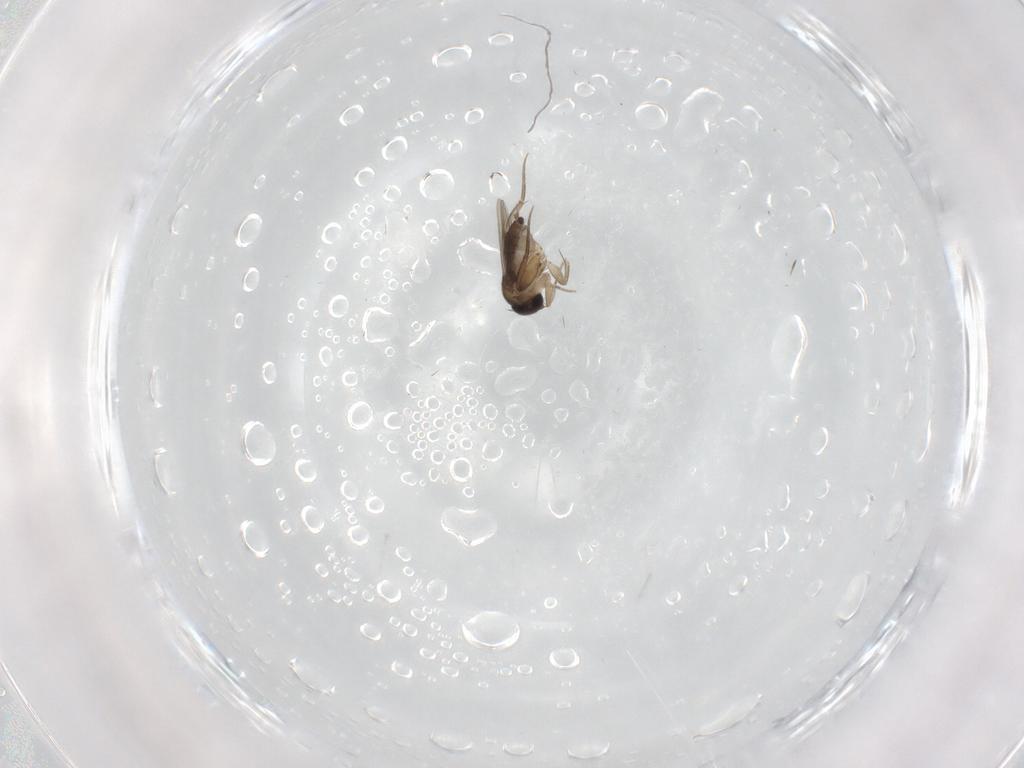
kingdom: Animalia
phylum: Arthropoda
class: Insecta
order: Diptera
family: Phoridae
